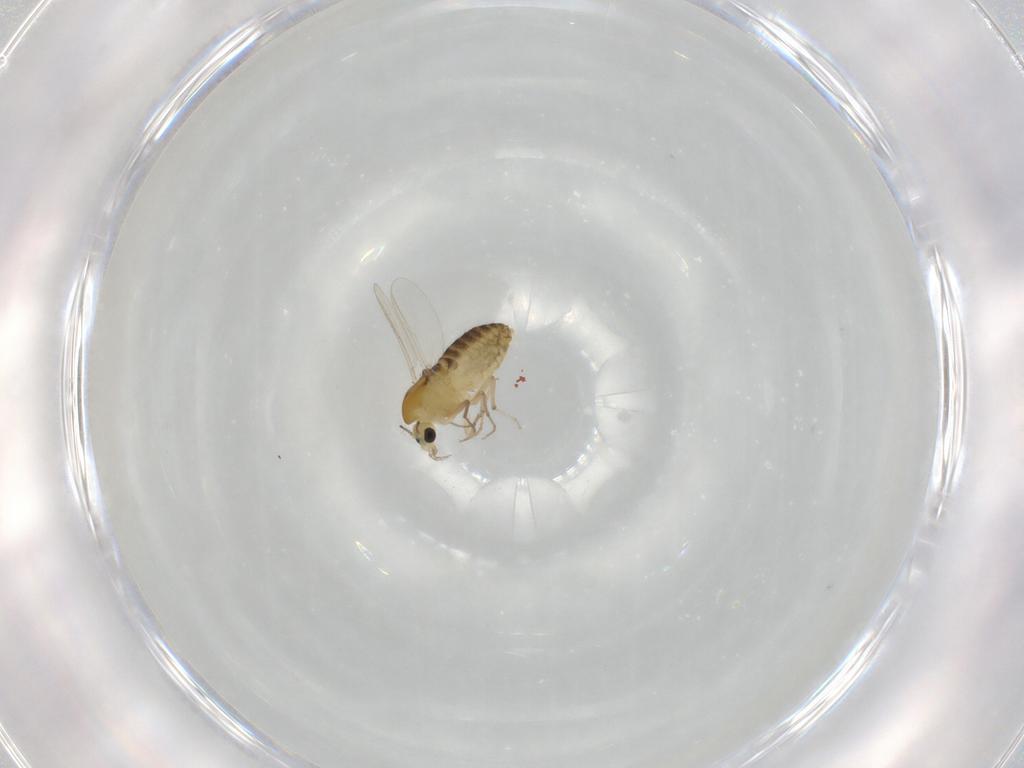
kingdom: Animalia
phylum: Arthropoda
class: Insecta
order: Diptera
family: Chironomidae
